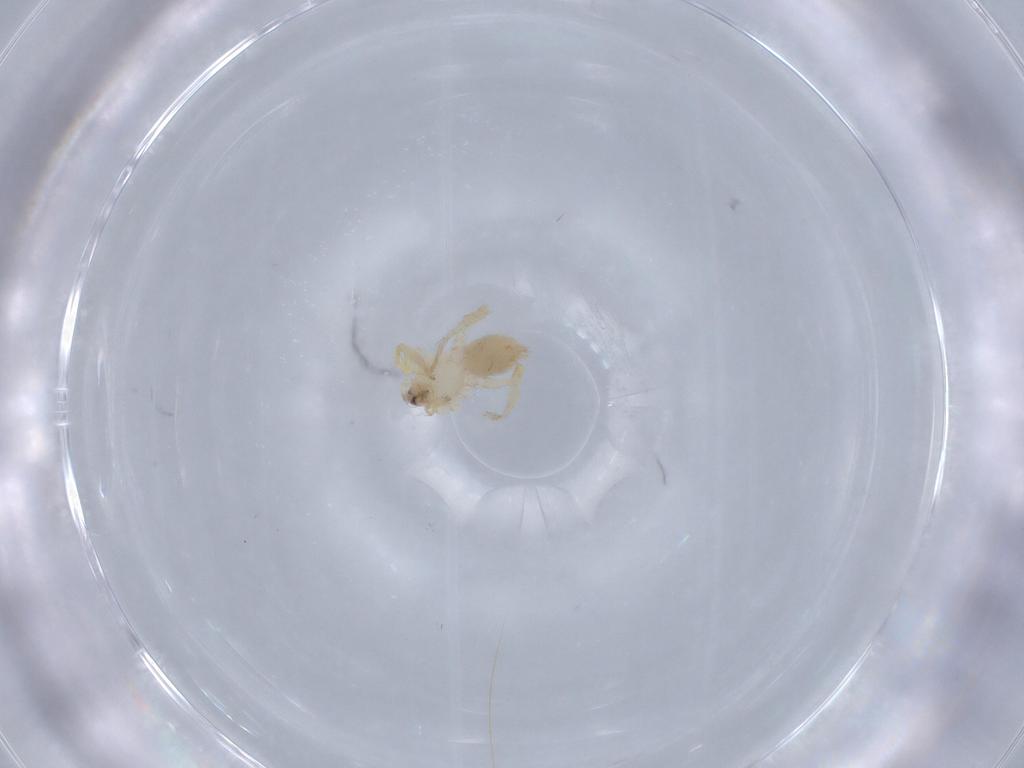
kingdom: Animalia
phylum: Arthropoda
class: Arachnida
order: Araneae
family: Oonopidae
